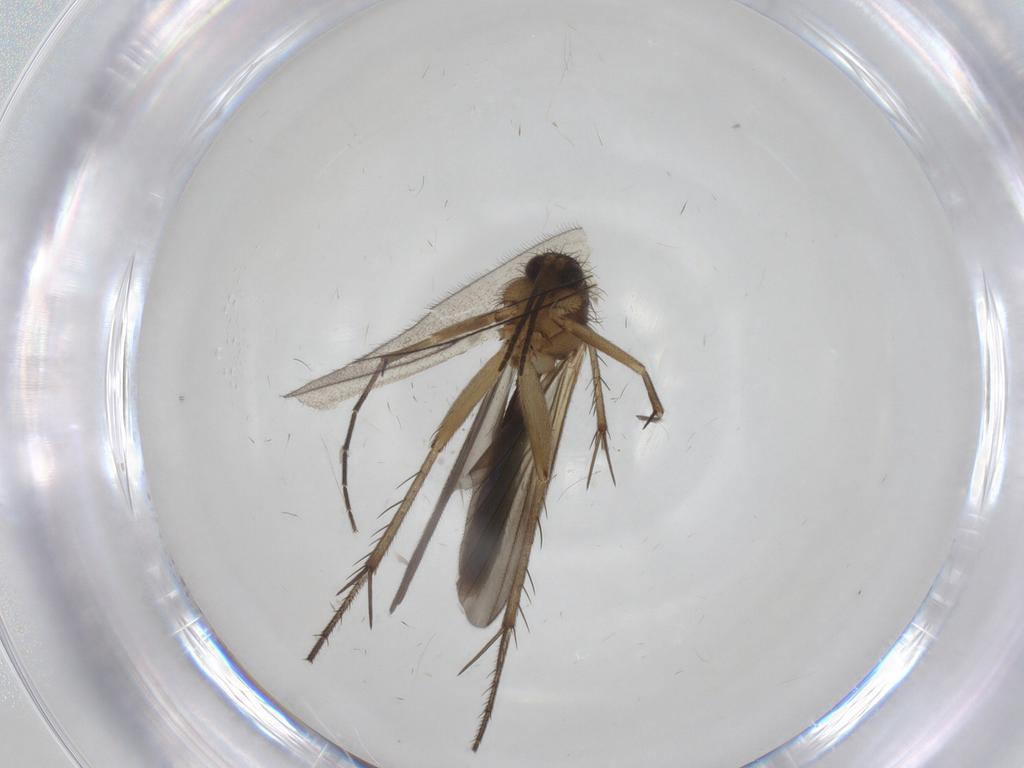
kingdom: Animalia
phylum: Arthropoda
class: Insecta
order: Diptera
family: Mycetophilidae
